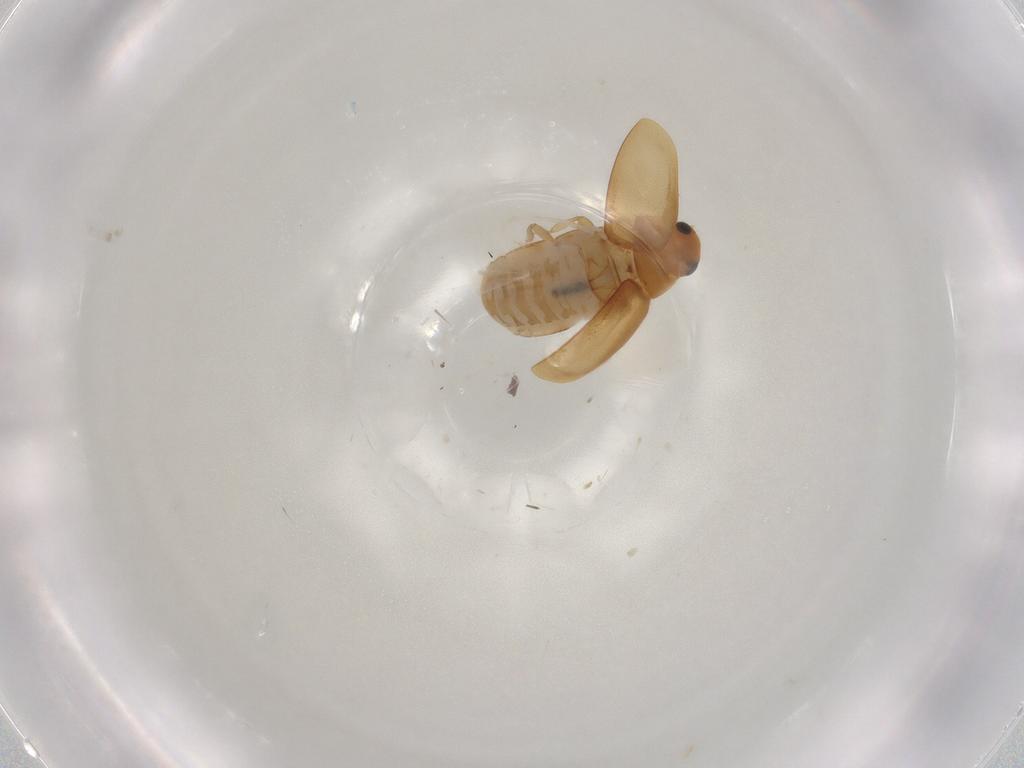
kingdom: Animalia
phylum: Arthropoda
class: Insecta
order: Coleoptera
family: Coccinellidae
